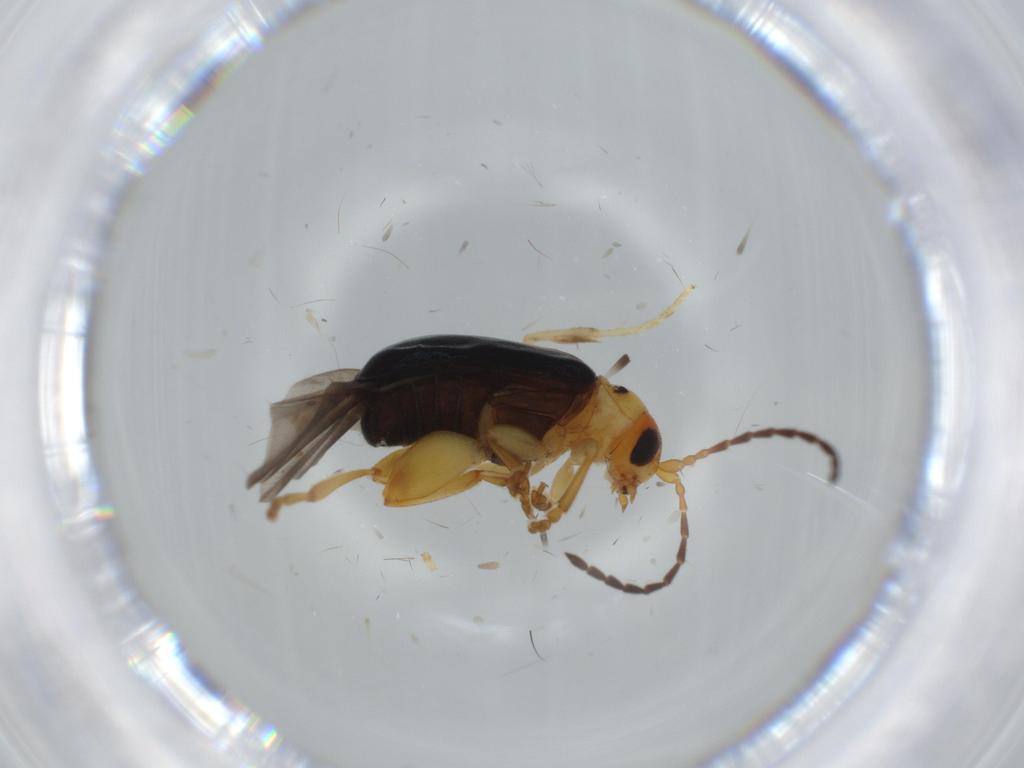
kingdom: Animalia
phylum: Arthropoda
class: Insecta
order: Coleoptera
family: Chrysomelidae
